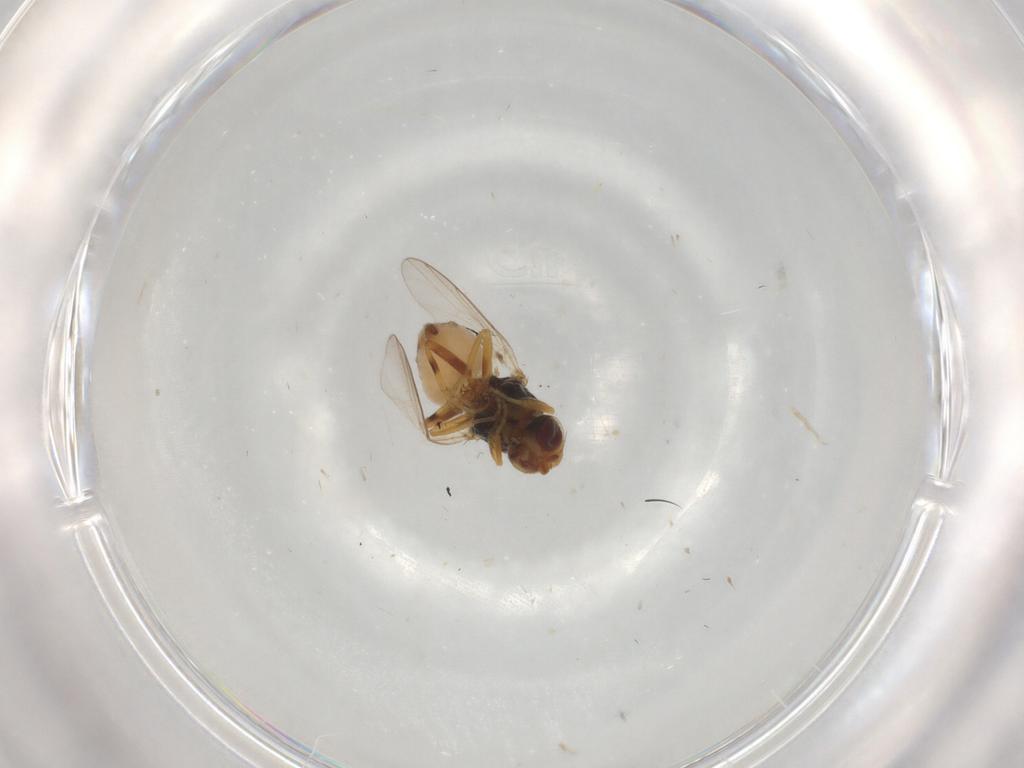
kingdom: Animalia
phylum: Arthropoda
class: Insecta
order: Diptera
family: Chloropidae
